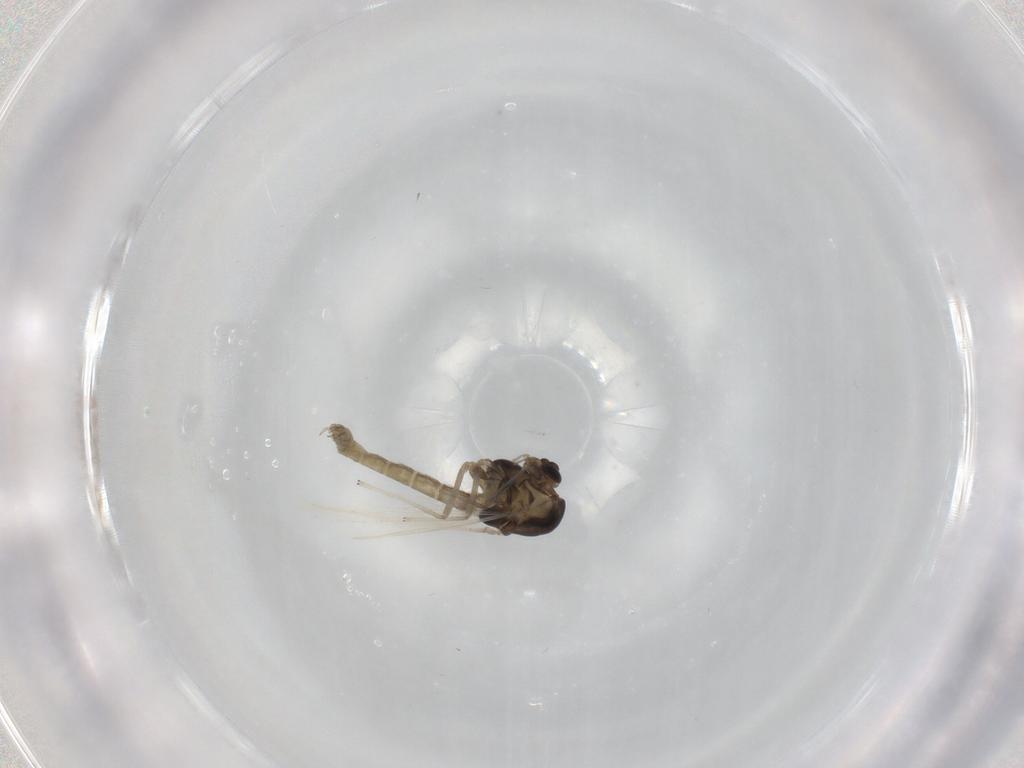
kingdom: Animalia
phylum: Arthropoda
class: Insecta
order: Diptera
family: Chironomidae
